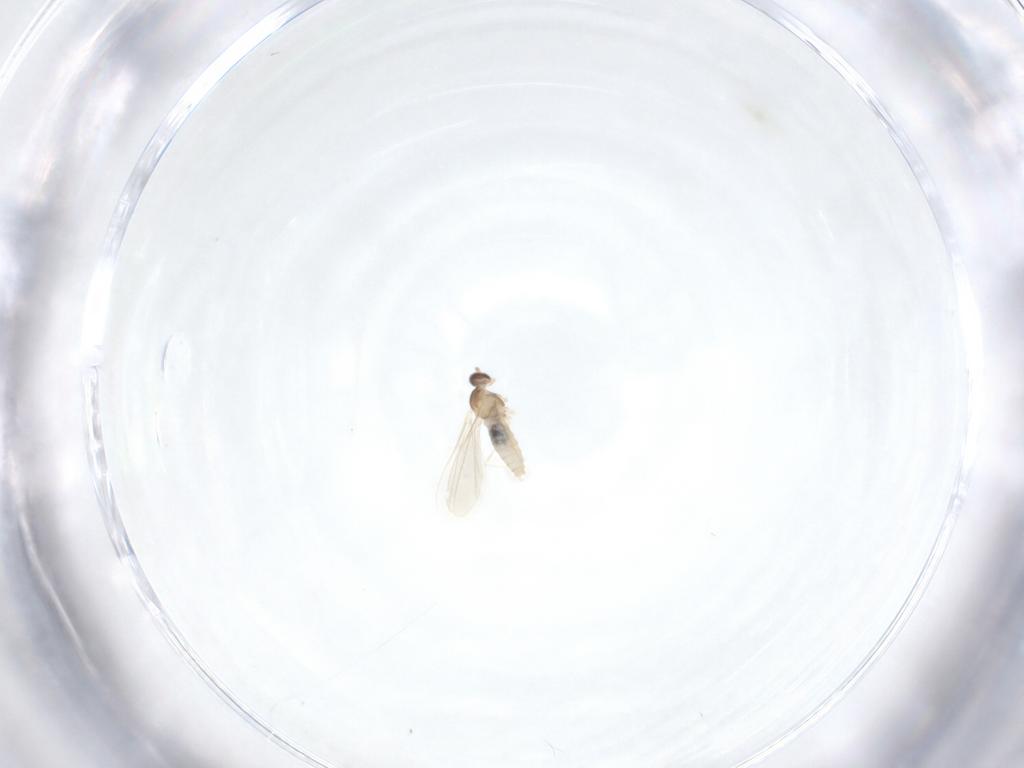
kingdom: Animalia
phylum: Arthropoda
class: Insecta
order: Diptera
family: Cecidomyiidae
